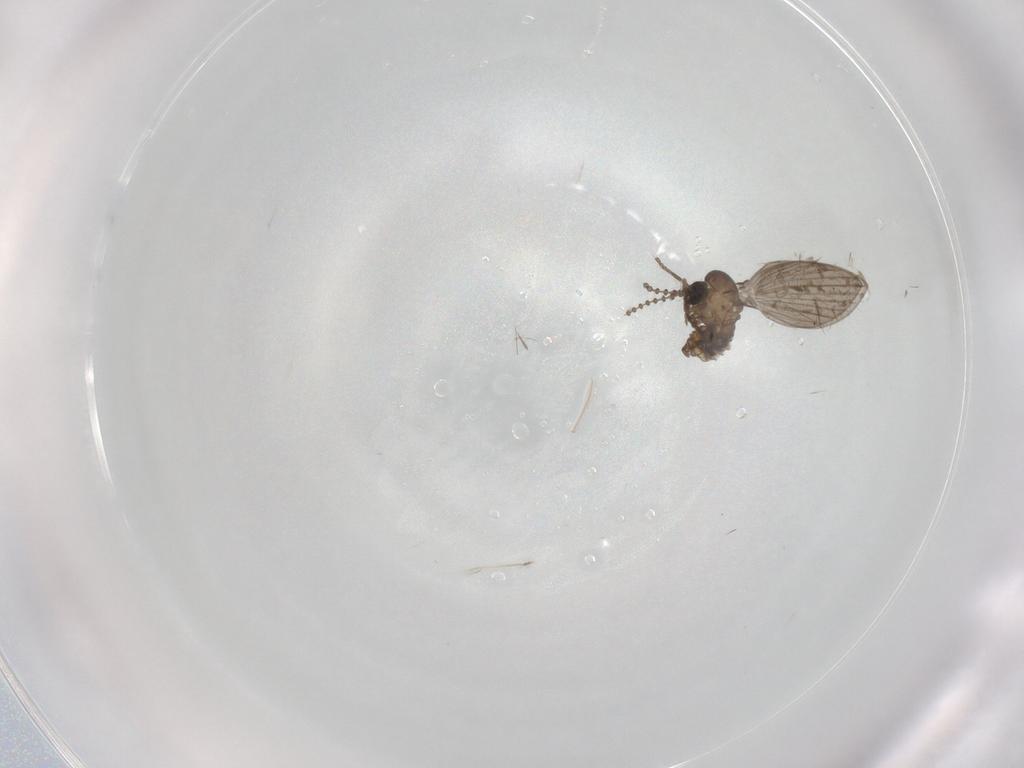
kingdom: Animalia
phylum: Arthropoda
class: Insecta
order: Diptera
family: Psychodidae
